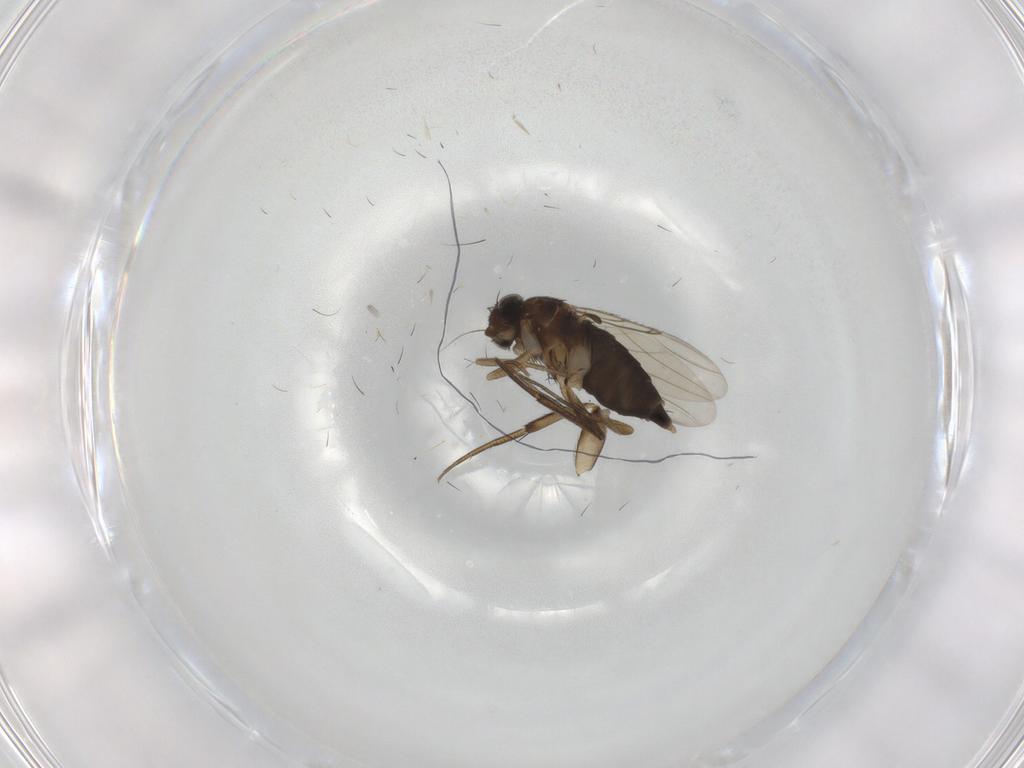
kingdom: Animalia
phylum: Arthropoda
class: Insecta
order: Diptera
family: Phoridae
